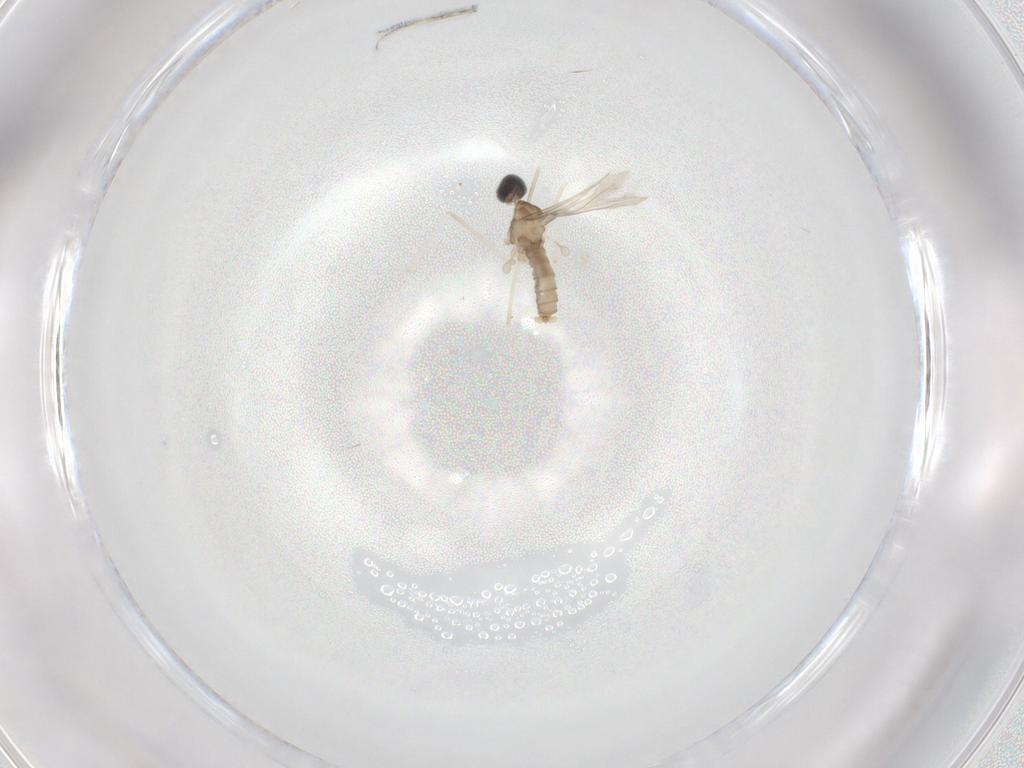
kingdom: Animalia
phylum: Arthropoda
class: Insecta
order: Diptera
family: Cecidomyiidae
